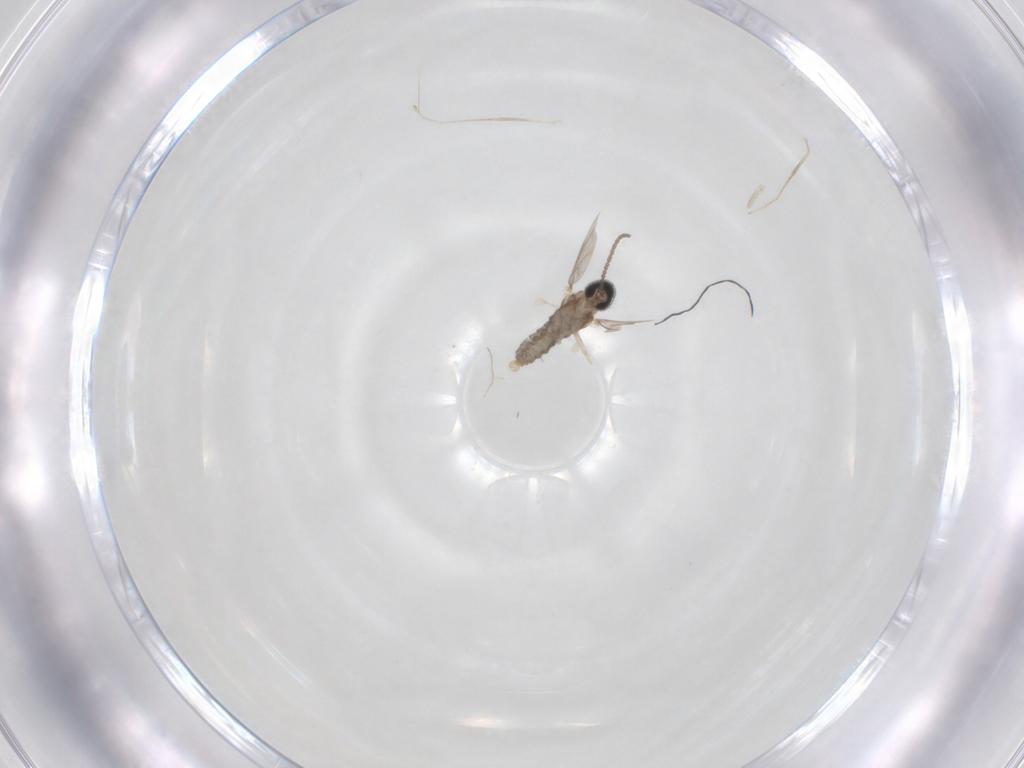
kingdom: Animalia
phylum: Arthropoda
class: Insecta
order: Diptera
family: Cecidomyiidae
